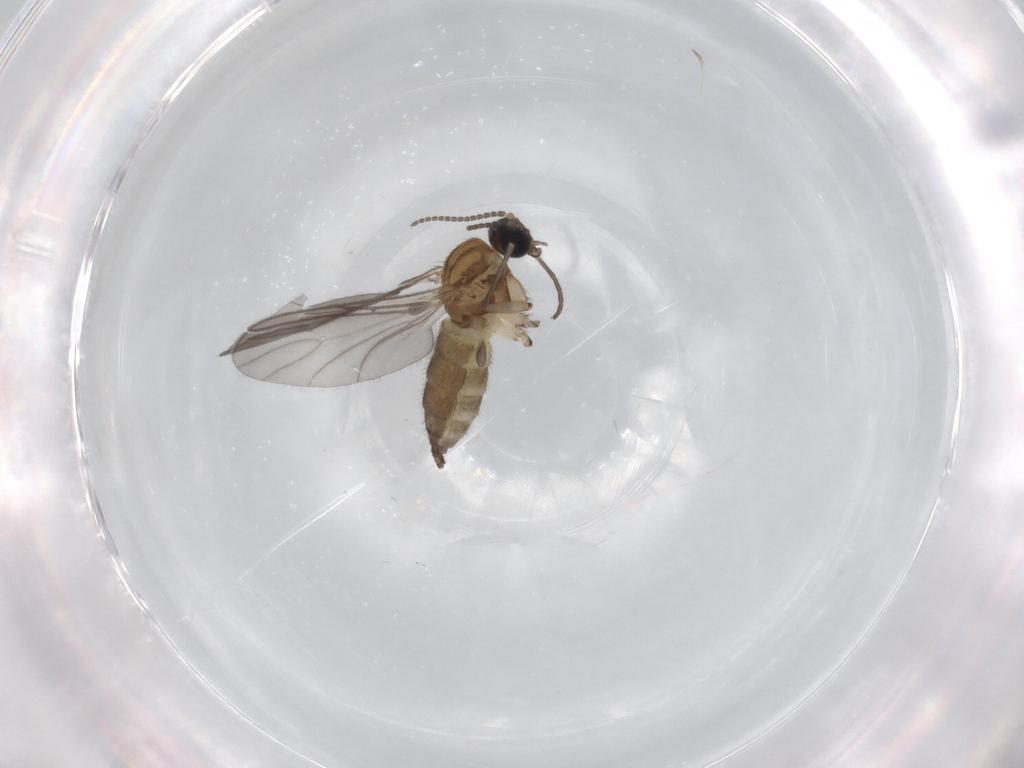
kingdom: Animalia
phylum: Arthropoda
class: Insecta
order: Diptera
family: Sciaridae
